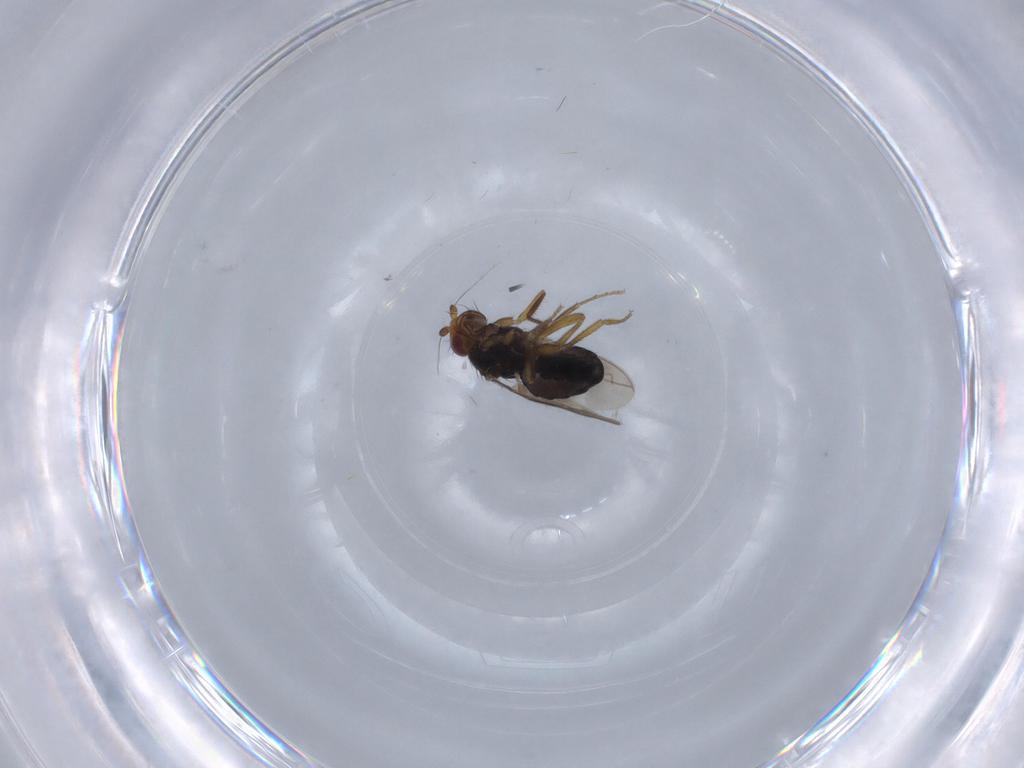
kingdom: Animalia
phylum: Arthropoda
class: Insecta
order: Diptera
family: Sphaeroceridae
